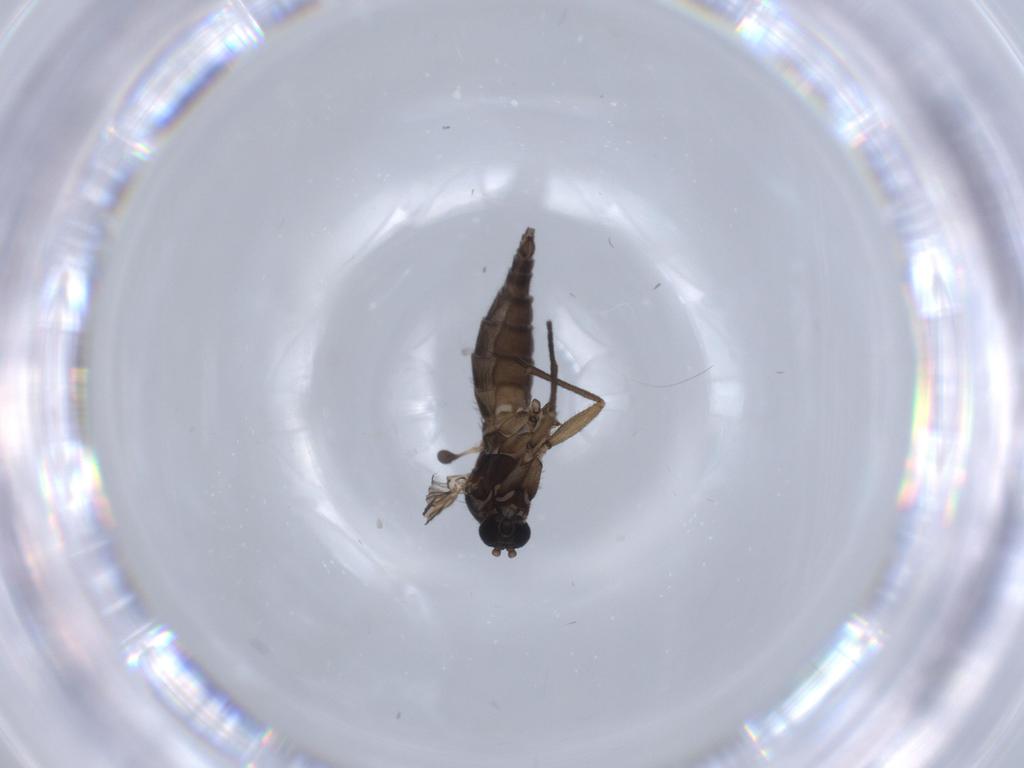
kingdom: Animalia
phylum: Arthropoda
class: Insecta
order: Diptera
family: Sciaridae
